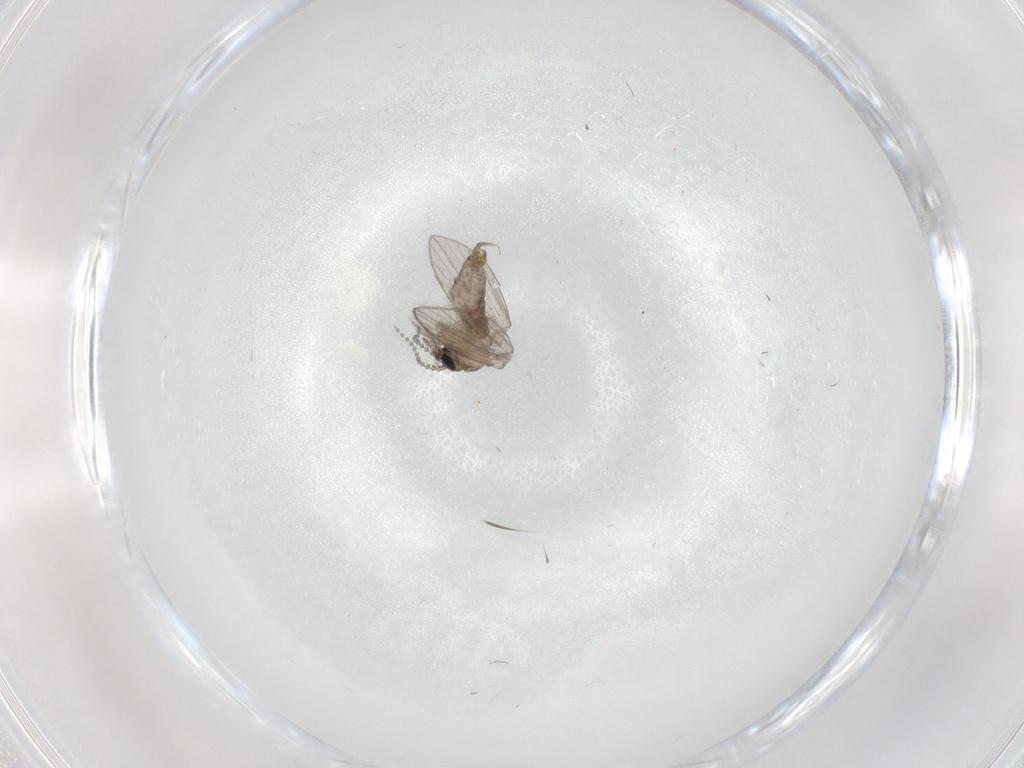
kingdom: Animalia
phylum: Arthropoda
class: Insecta
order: Diptera
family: Psychodidae
